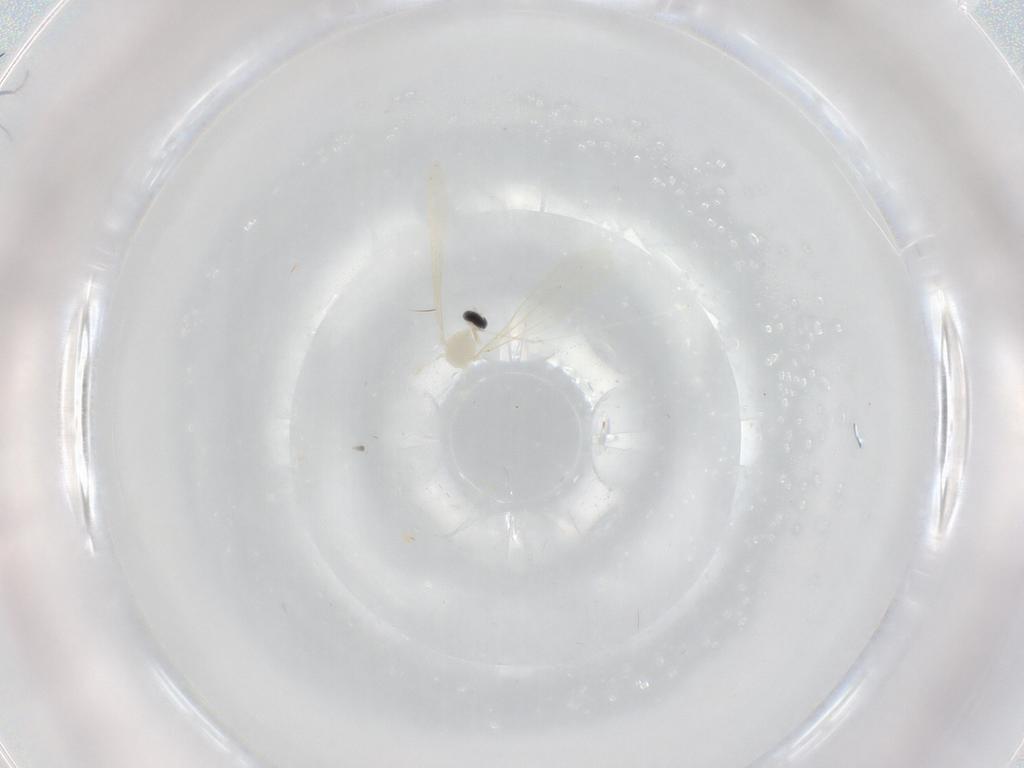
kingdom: Animalia
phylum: Arthropoda
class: Insecta
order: Diptera
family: Cecidomyiidae
